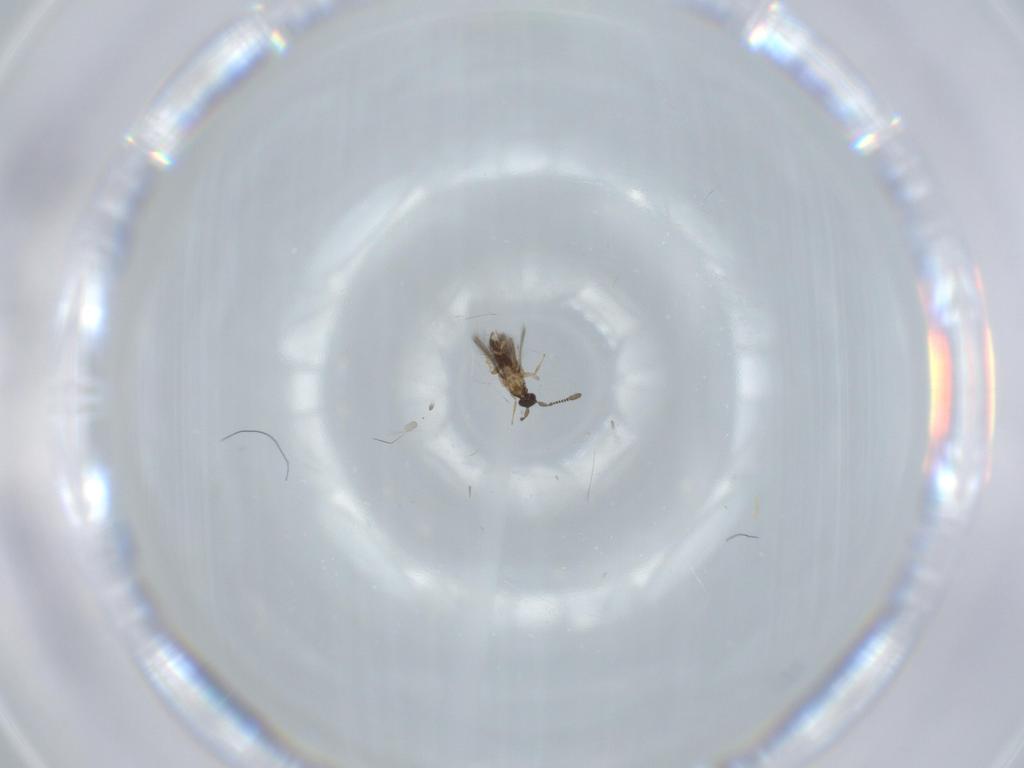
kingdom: Animalia
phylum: Arthropoda
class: Insecta
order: Hymenoptera
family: Mymaridae
